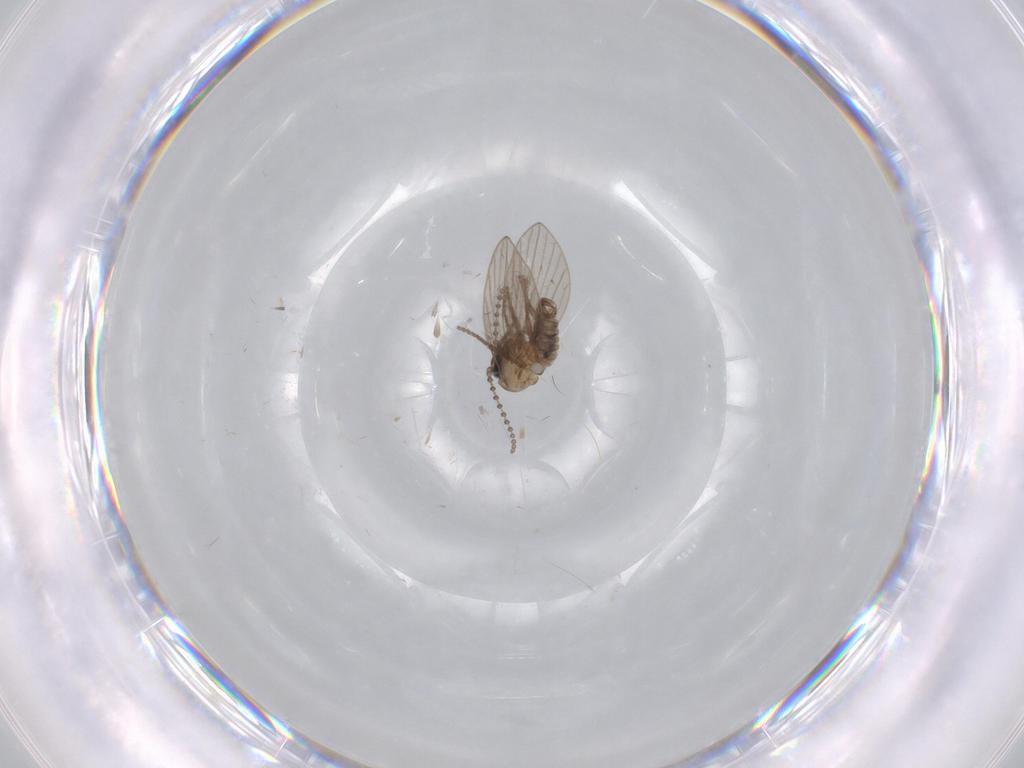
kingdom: Animalia
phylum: Arthropoda
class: Insecta
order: Diptera
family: Psychodidae
